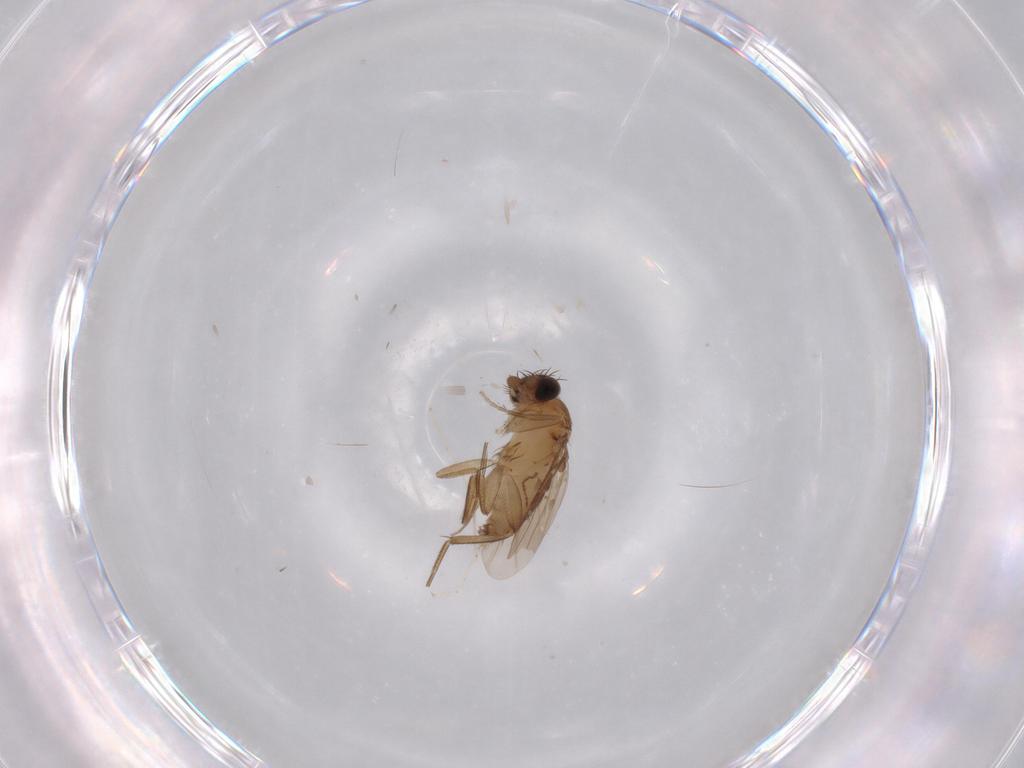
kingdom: Animalia
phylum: Arthropoda
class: Insecta
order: Diptera
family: Phoridae
